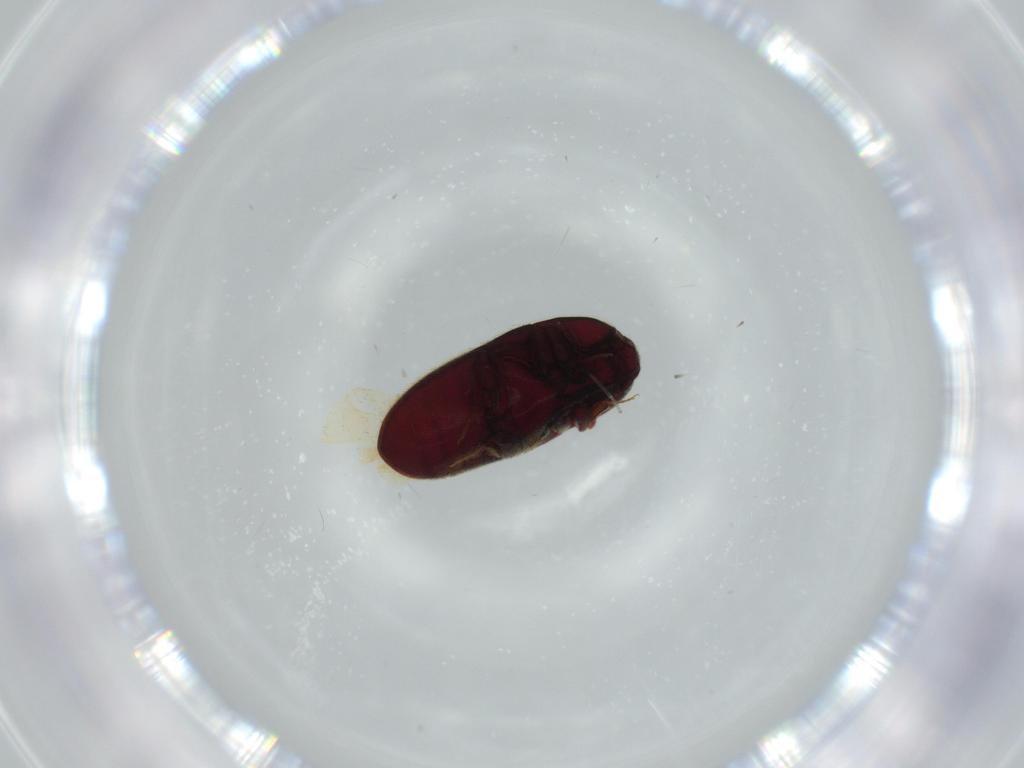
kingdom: Animalia
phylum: Arthropoda
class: Insecta
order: Coleoptera
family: Throscidae
